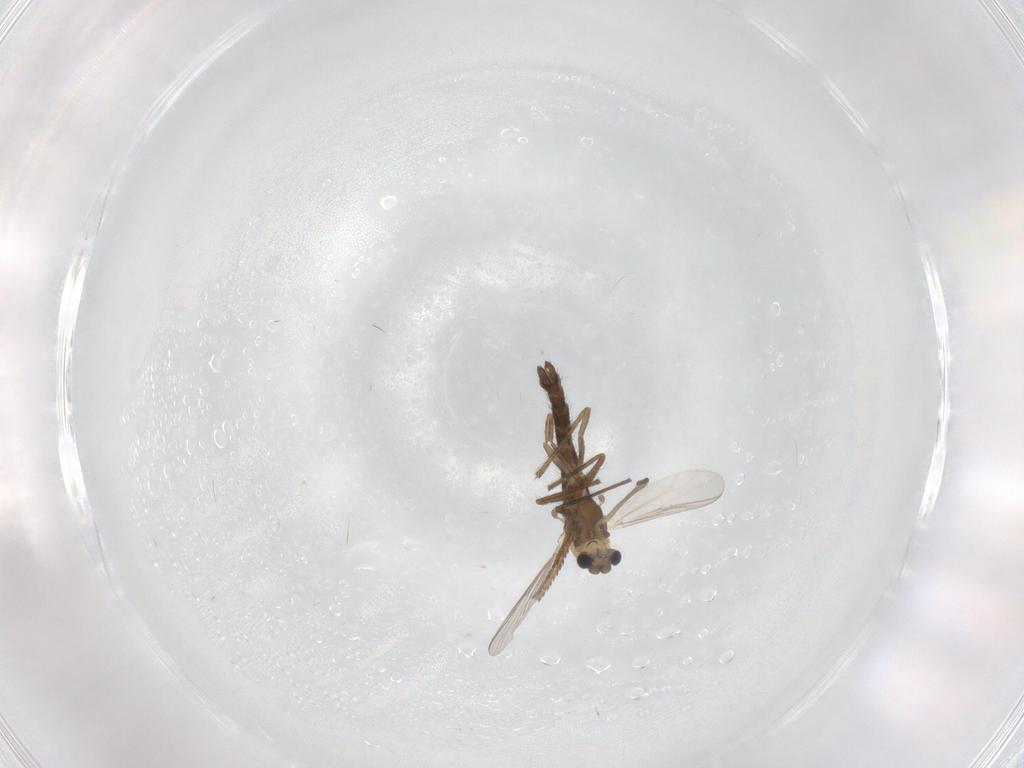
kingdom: Animalia
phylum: Arthropoda
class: Insecta
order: Diptera
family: Chironomidae
